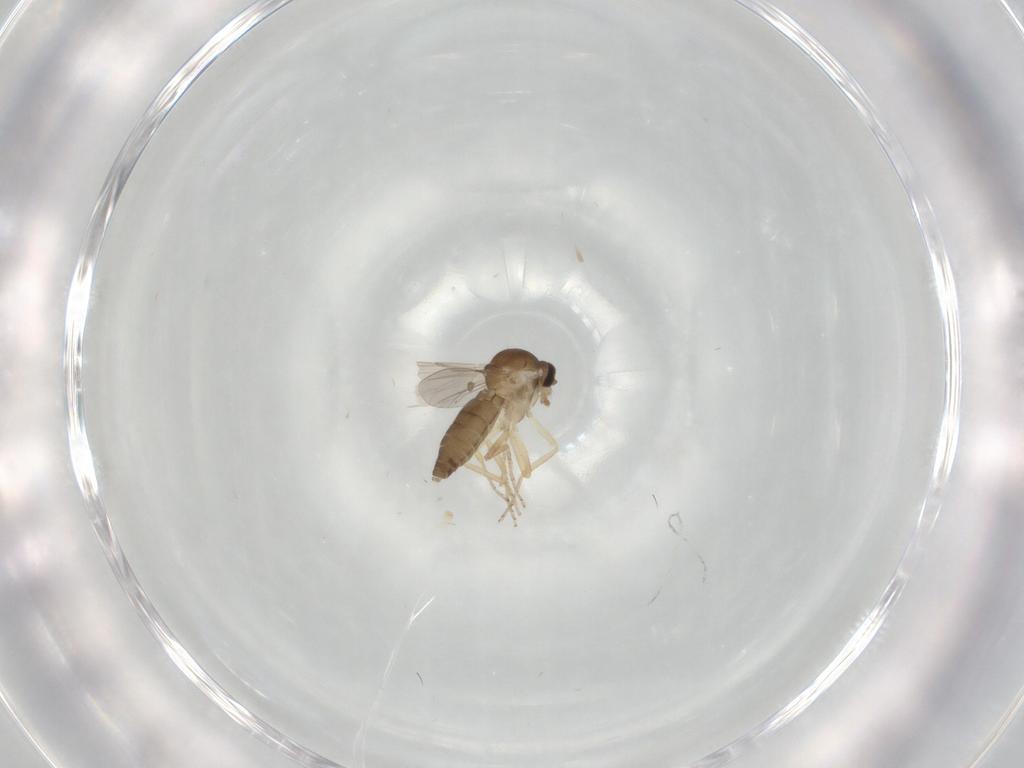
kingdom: Animalia
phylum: Arthropoda
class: Insecta
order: Diptera
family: Ceratopogonidae
